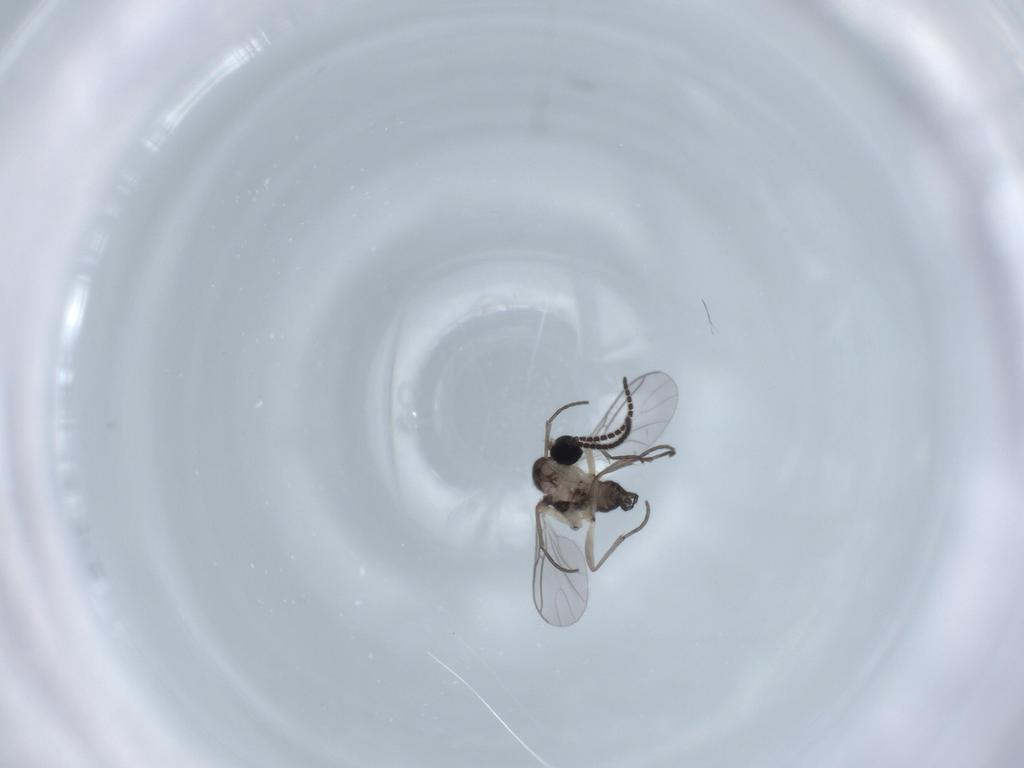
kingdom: Animalia
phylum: Arthropoda
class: Insecta
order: Diptera
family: Sciaridae
